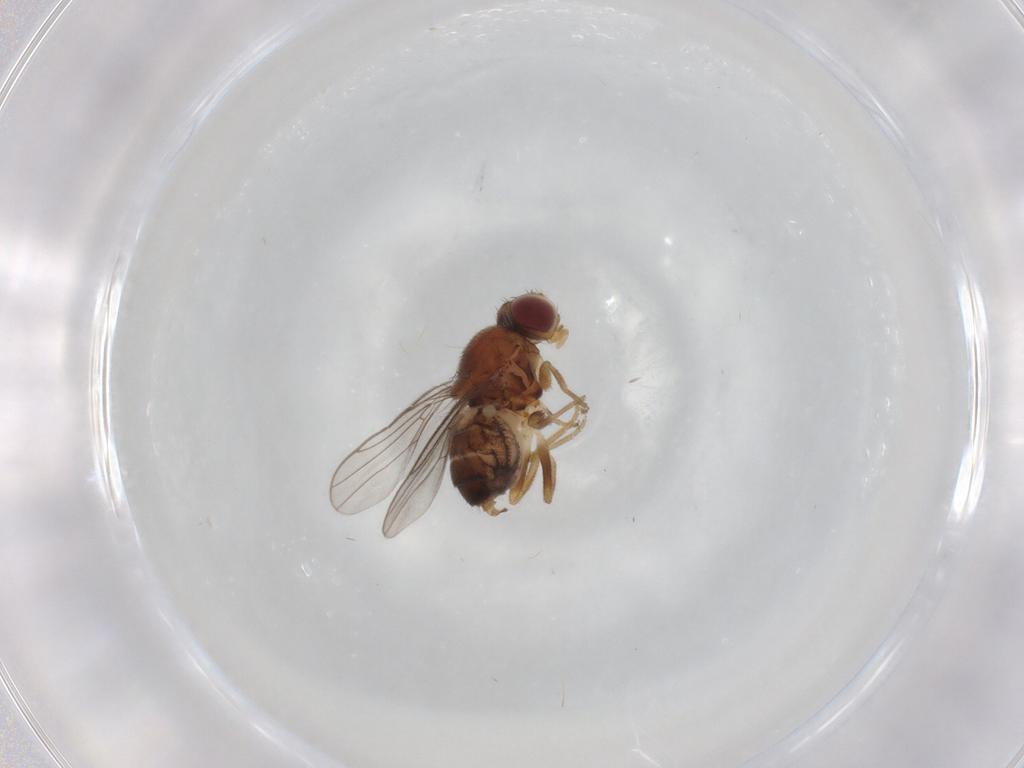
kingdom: Animalia
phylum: Arthropoda
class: Insecta
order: Diptera
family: Chloropidae
